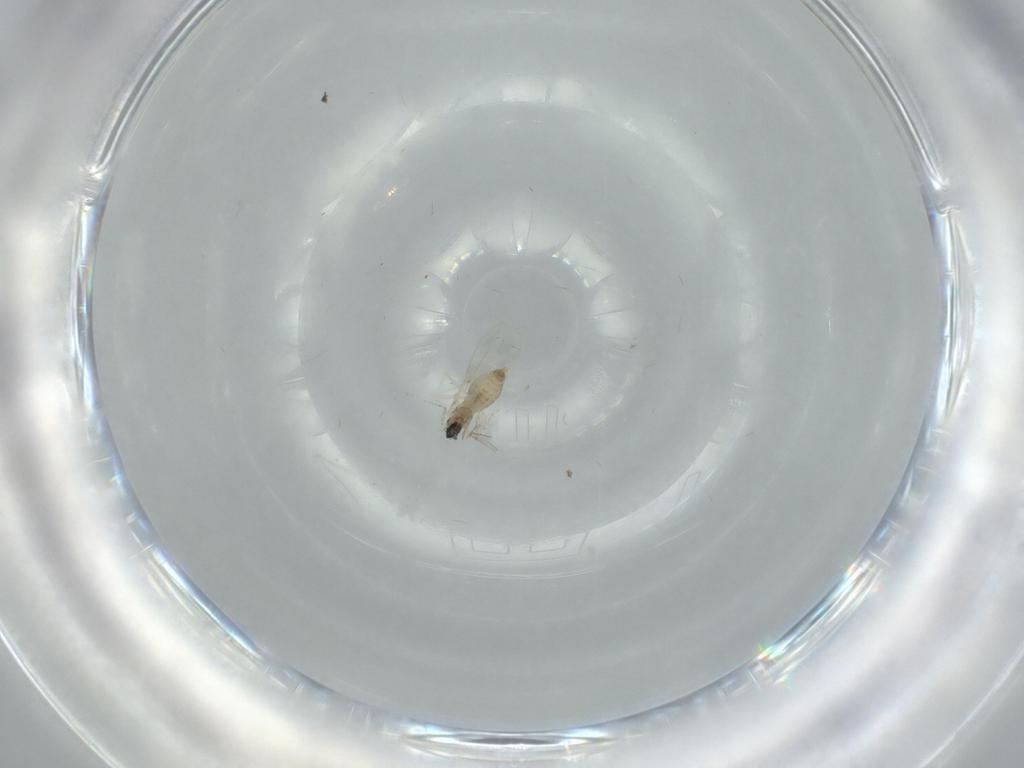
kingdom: Animalia
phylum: Arthropoda
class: Insecta
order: Diptera
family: Cecidomyiidae
